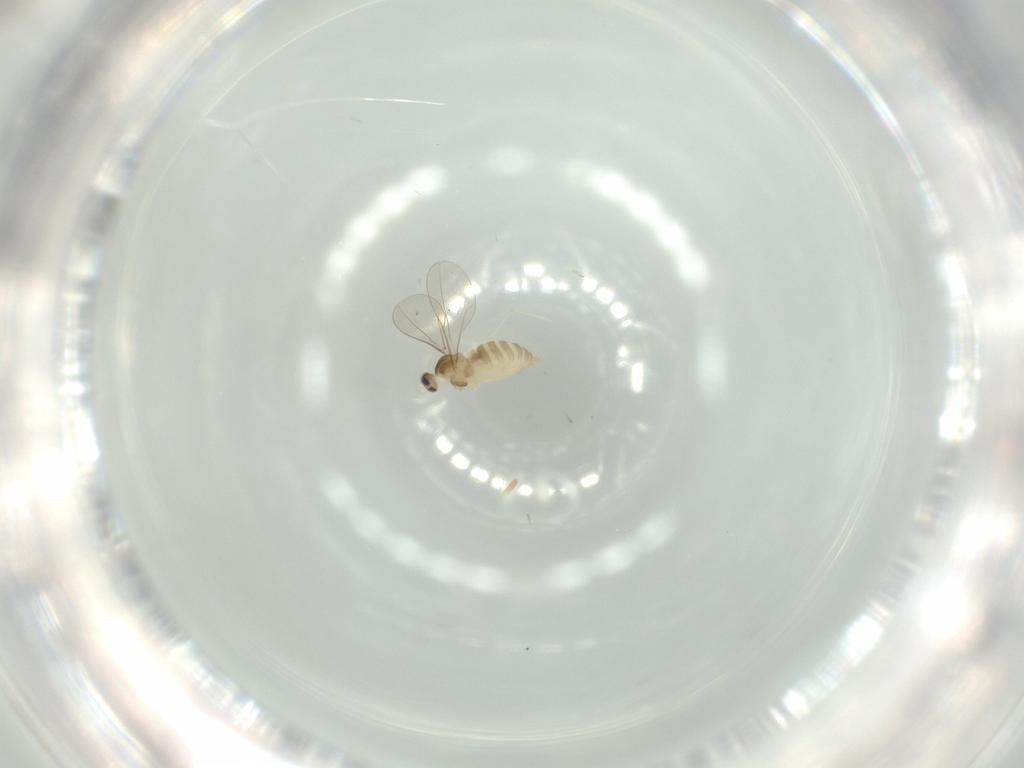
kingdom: Animalia
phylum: Arthropoda
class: Insecta
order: Diptera
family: Cecidomyiidae
